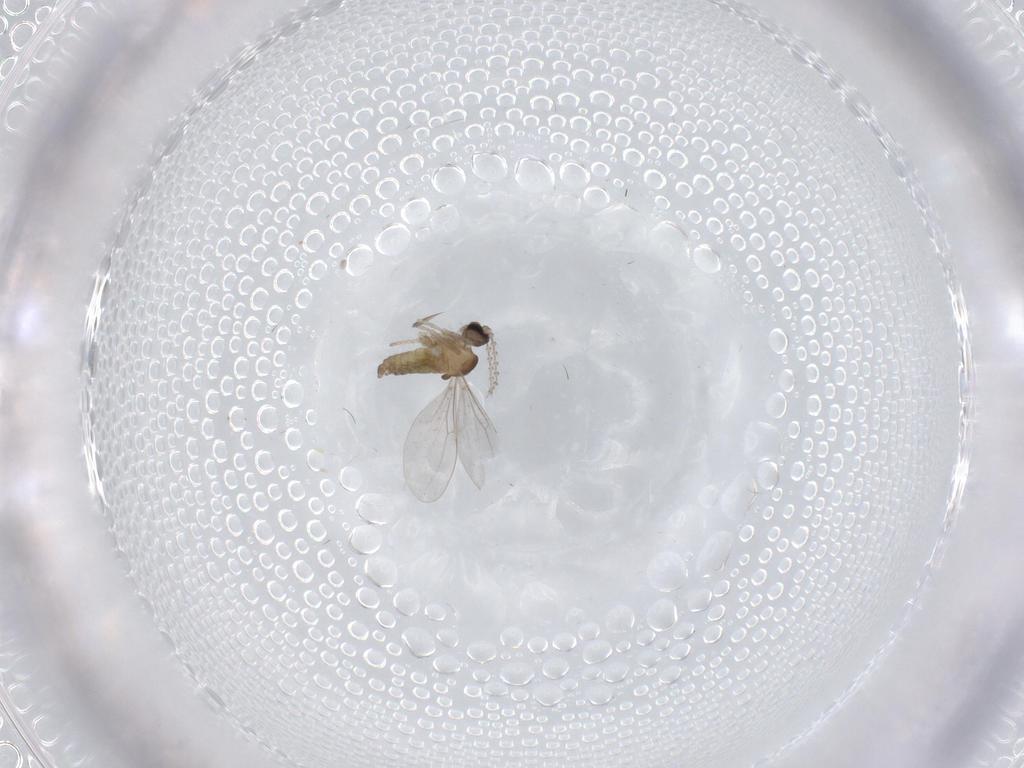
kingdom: Animalia
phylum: Arthropoda
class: Insecta
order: Diptera
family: Cecidomyiidae
